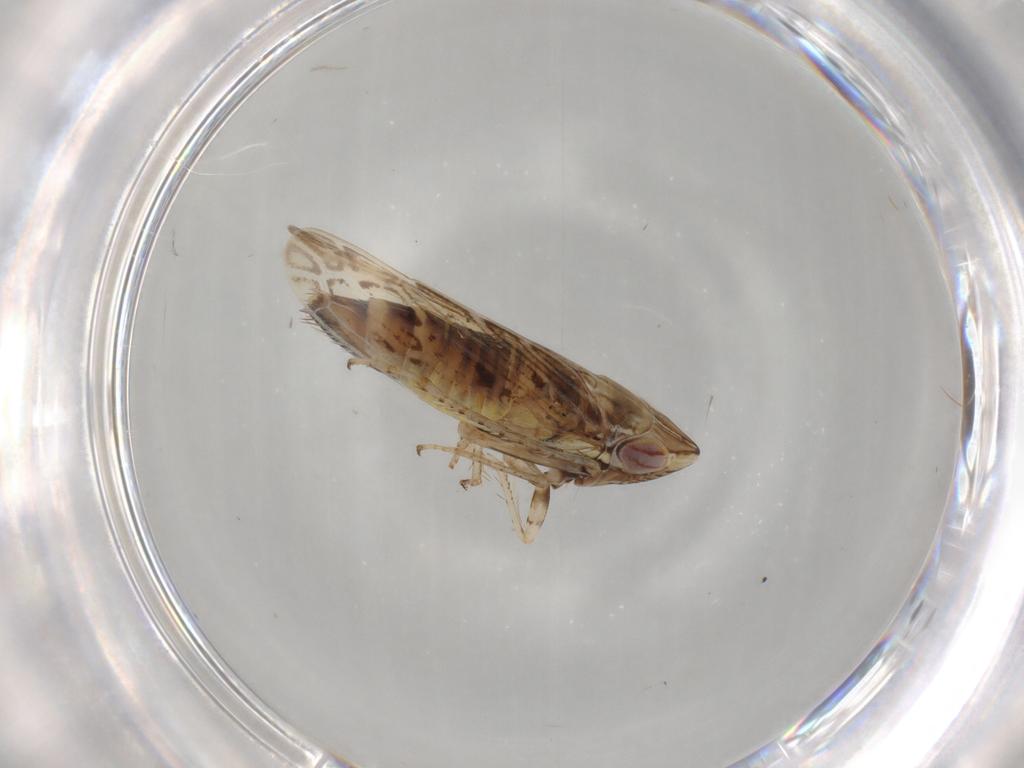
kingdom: Animalia
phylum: Arthropoda
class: Insecta
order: Hemiptera
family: Cicadellidae
